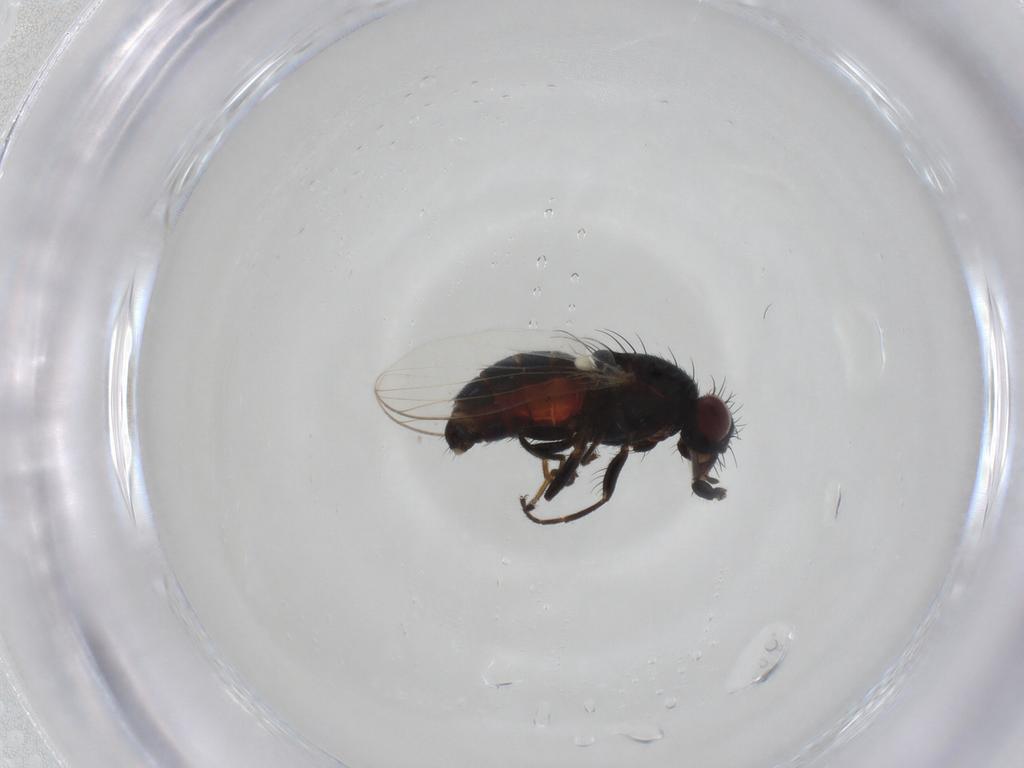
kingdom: Animalia
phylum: Arthropoda
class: Insecta
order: Diptera
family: Carnidae
